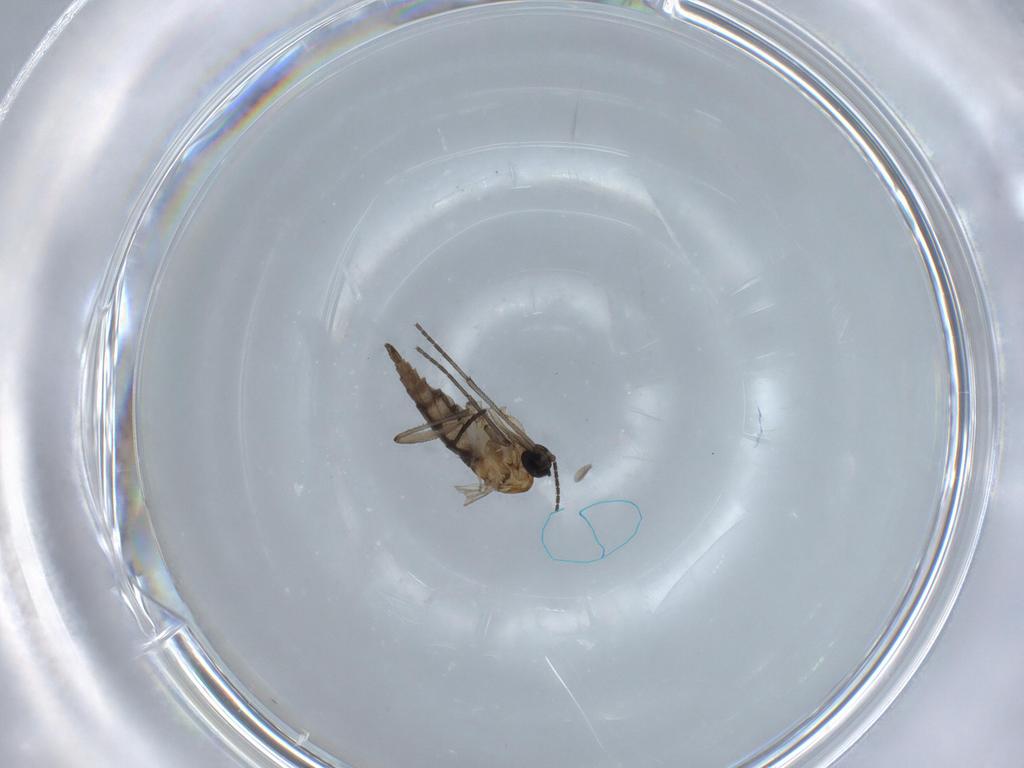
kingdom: Animalia
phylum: Arthropoda
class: Insecta
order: Diptera
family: Sciaridae
